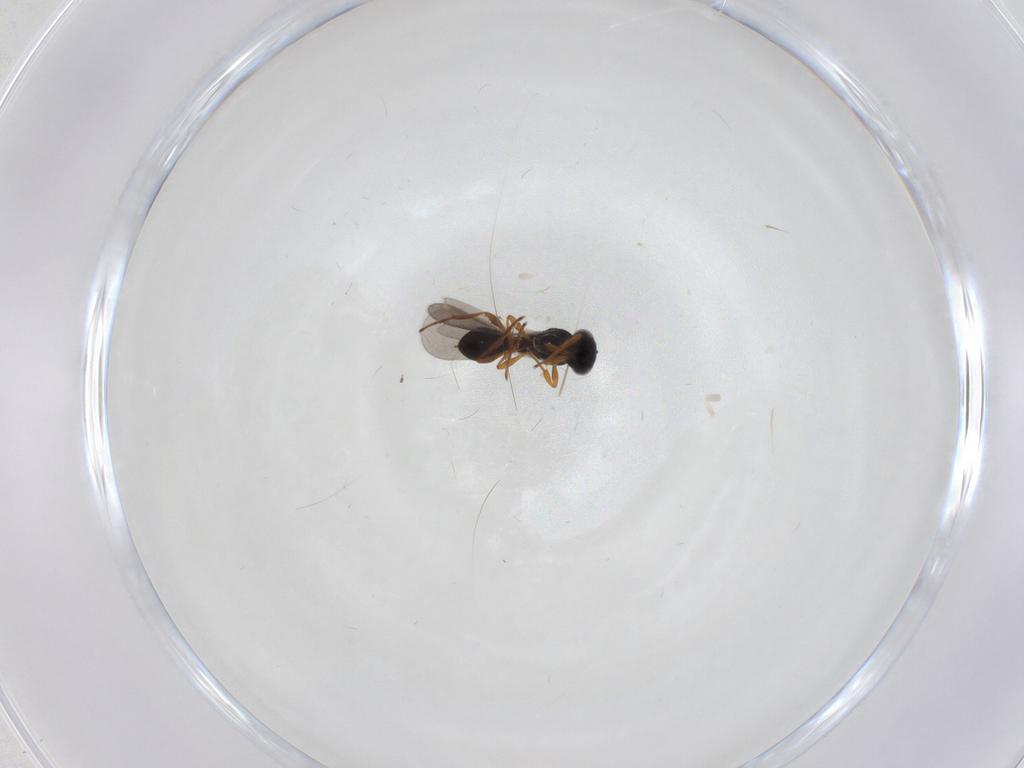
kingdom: Animalia
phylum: Arthropoda
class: Insecta
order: Hymenoptera
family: Platygastridae
